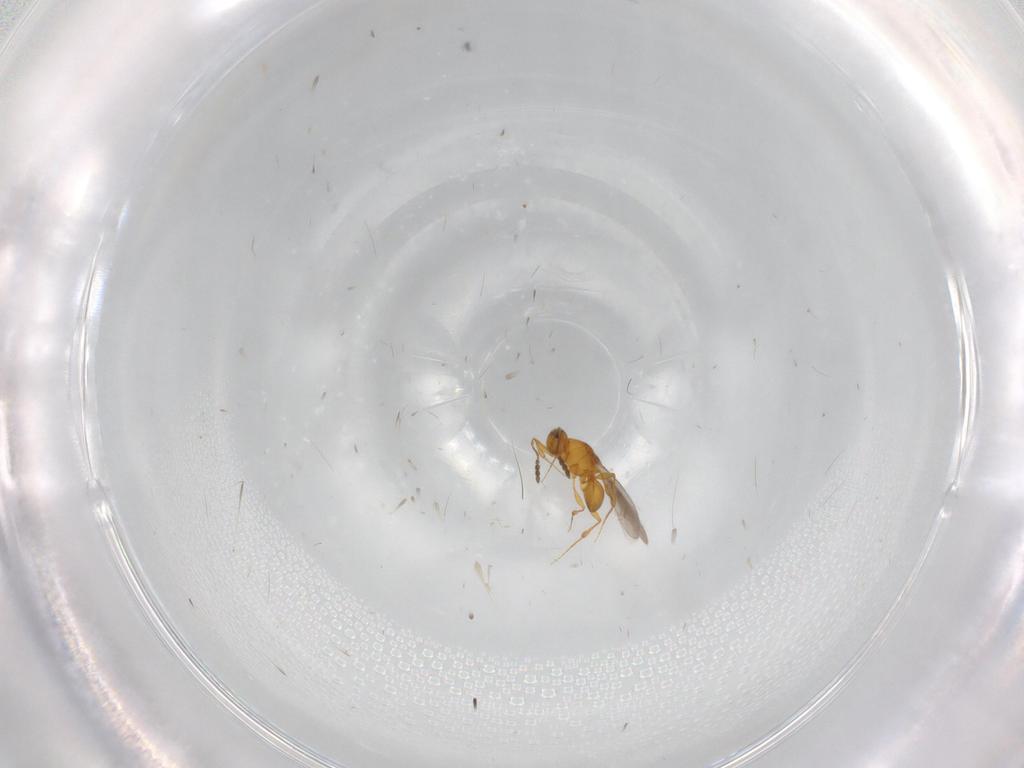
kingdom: Animalia
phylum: Arthropoda
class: Insecta
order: Hymenoptera
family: Platygastridae
